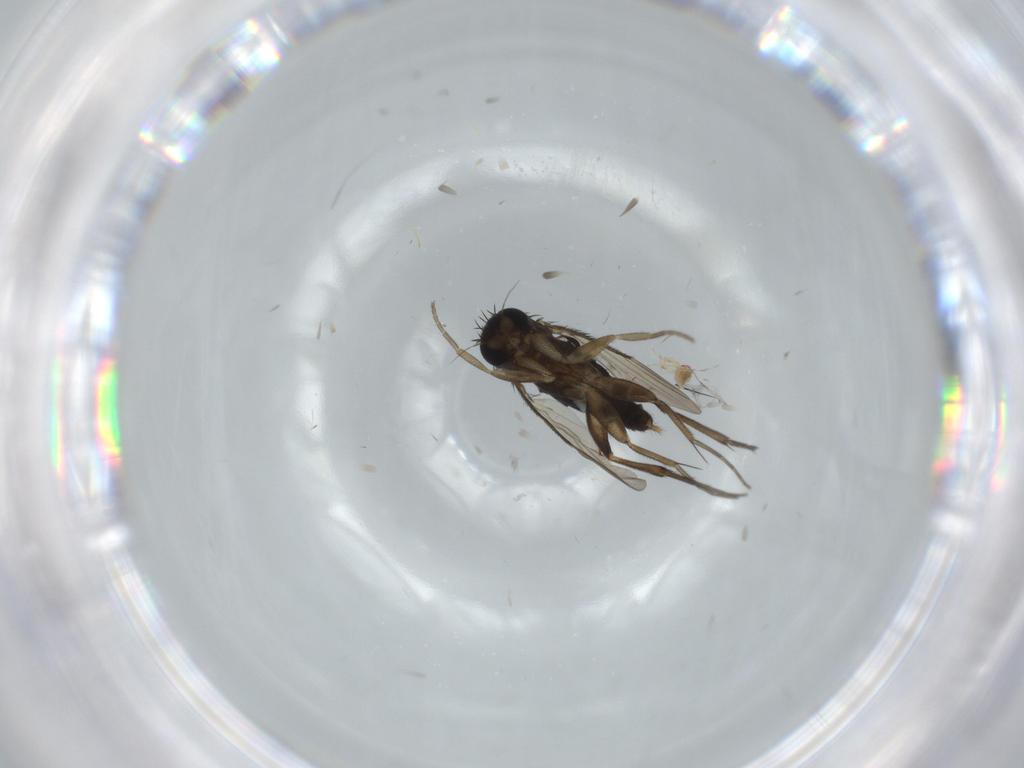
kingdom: Animalia
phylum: Arthropoda
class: Insecta
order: Diptera
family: Phoridae
